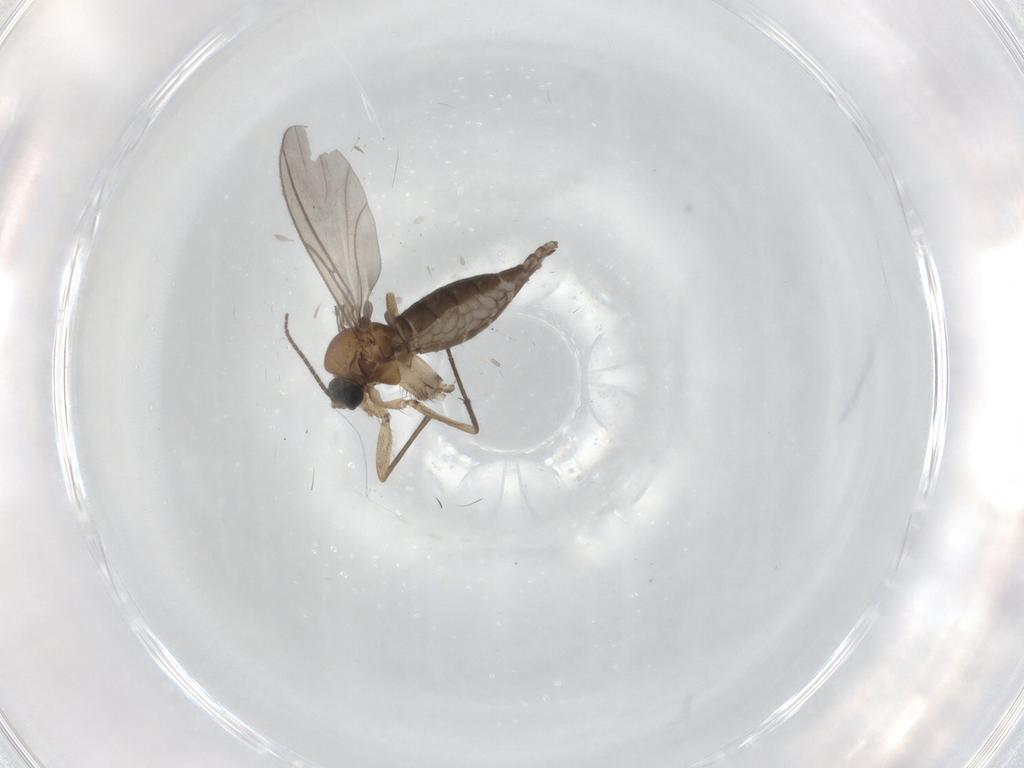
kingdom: Animalia
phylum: Arthropoda
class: Insecta
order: Diptera
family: Sciaridae
